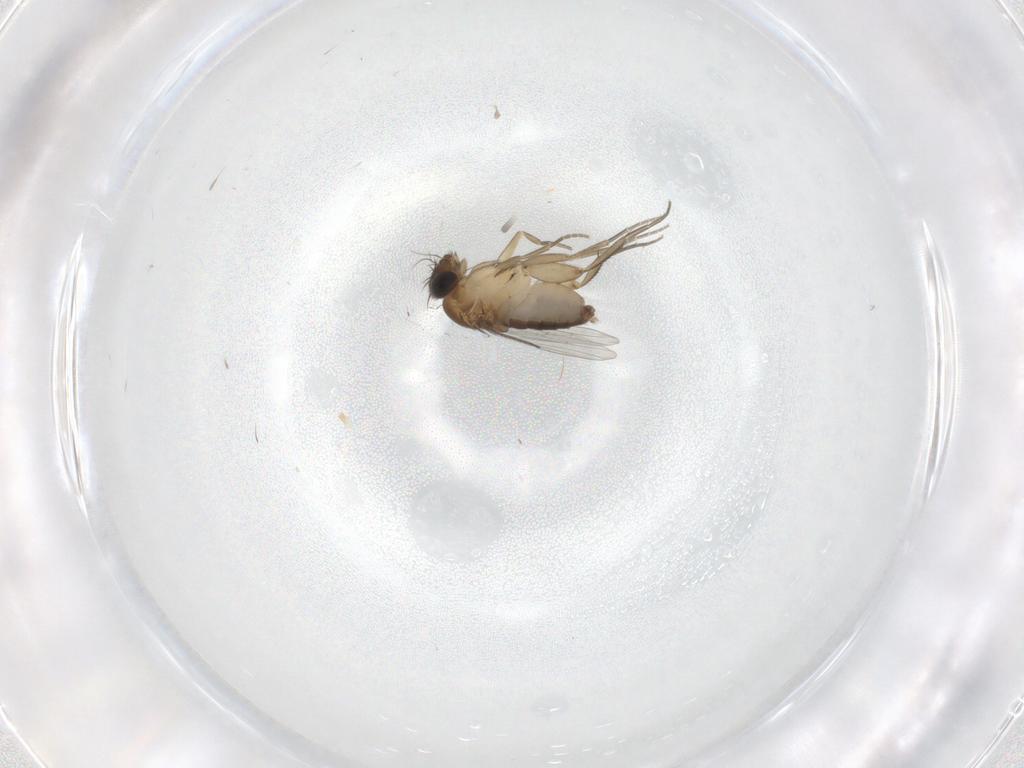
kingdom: Animalia
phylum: Arthropoda
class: Insecta
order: Diptera
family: Phoridae
